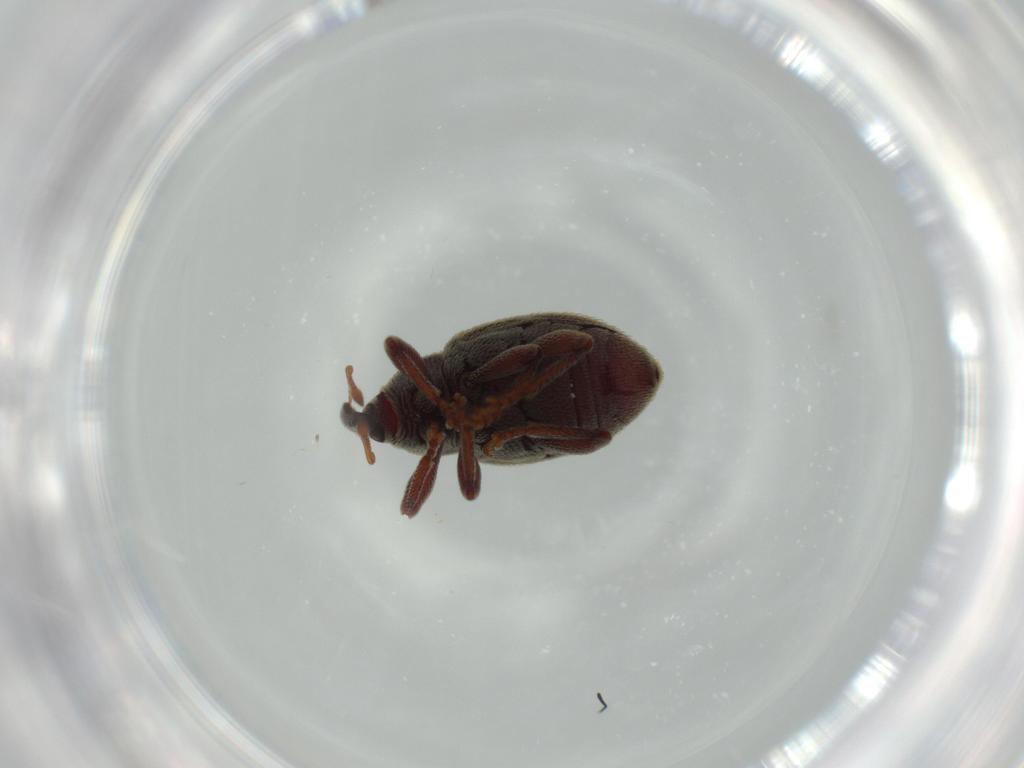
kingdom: Animalia
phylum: Arthropoda
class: Insecta
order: Coleoptera
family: Curculionidae
